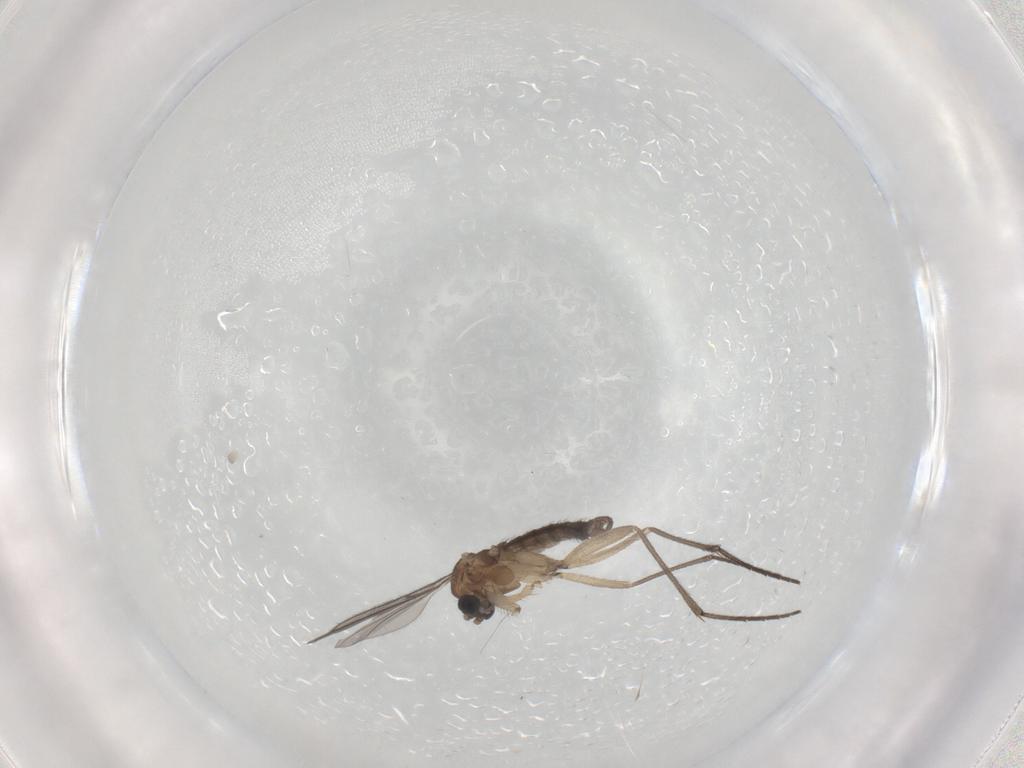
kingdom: Animalia
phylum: Arthropoda
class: Insecta
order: Diptera
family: Sciaridae
